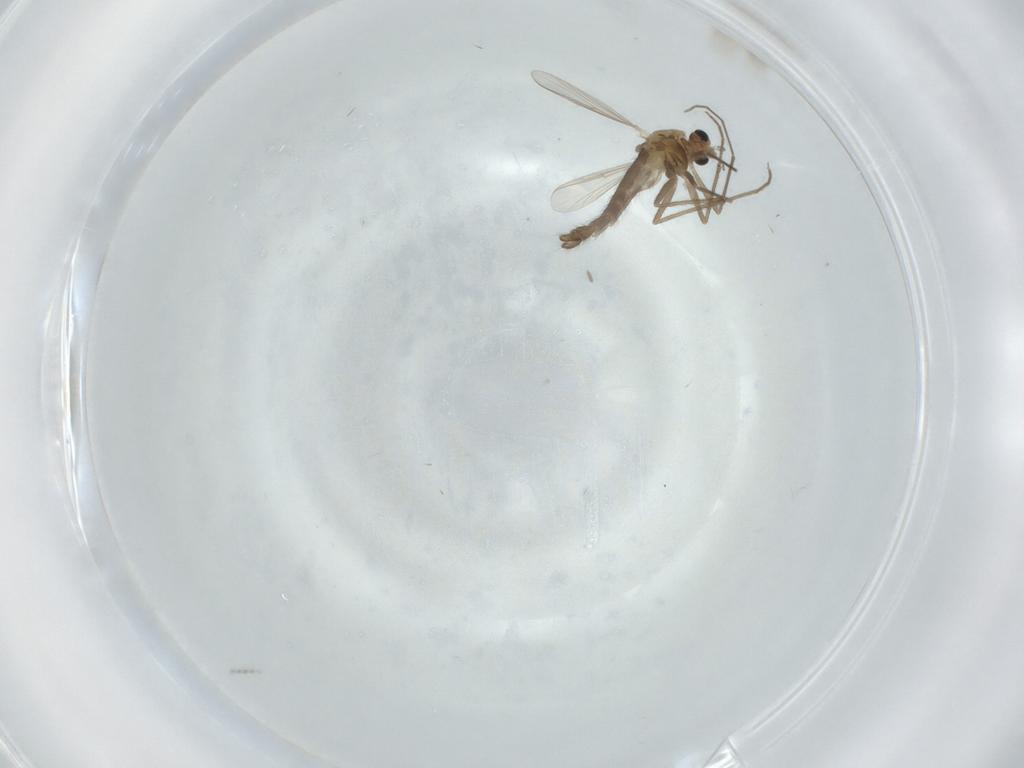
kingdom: Animalia
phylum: Arthropoda
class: Insecta
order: Diptera
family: Chironomidae
